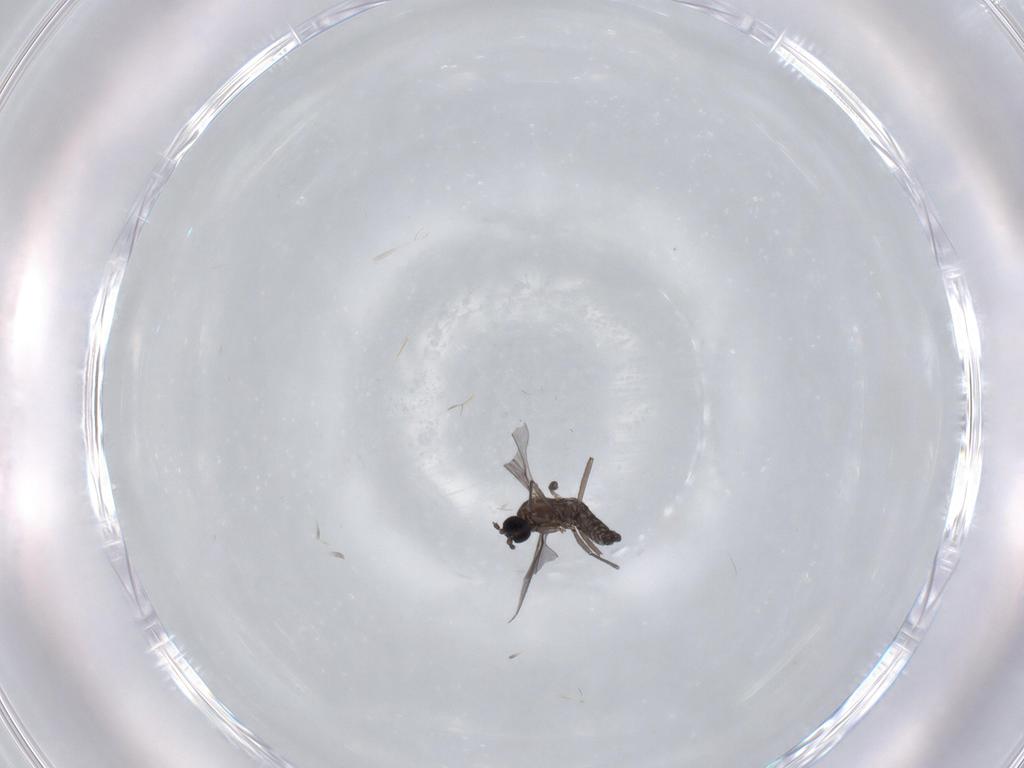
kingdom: Animalia
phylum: Arthropoda
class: Insecta
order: Diptera
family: Sciaridae
